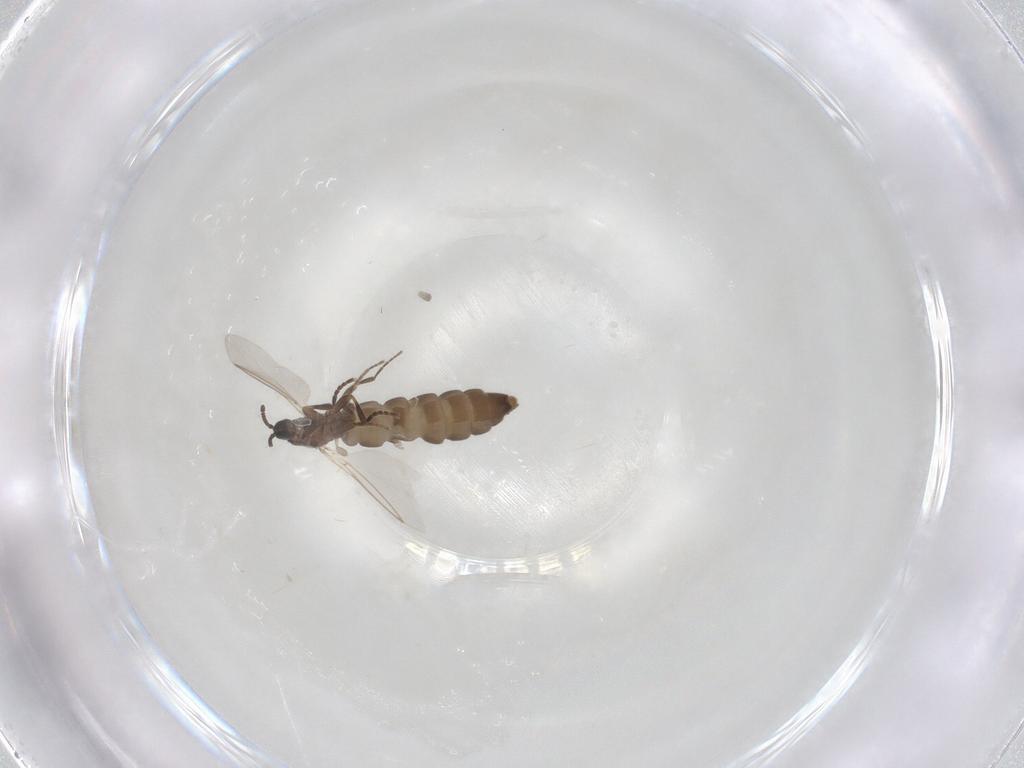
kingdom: Animalia
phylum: Arthropoda
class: Insecta
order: Diptera
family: Scatopsidae
